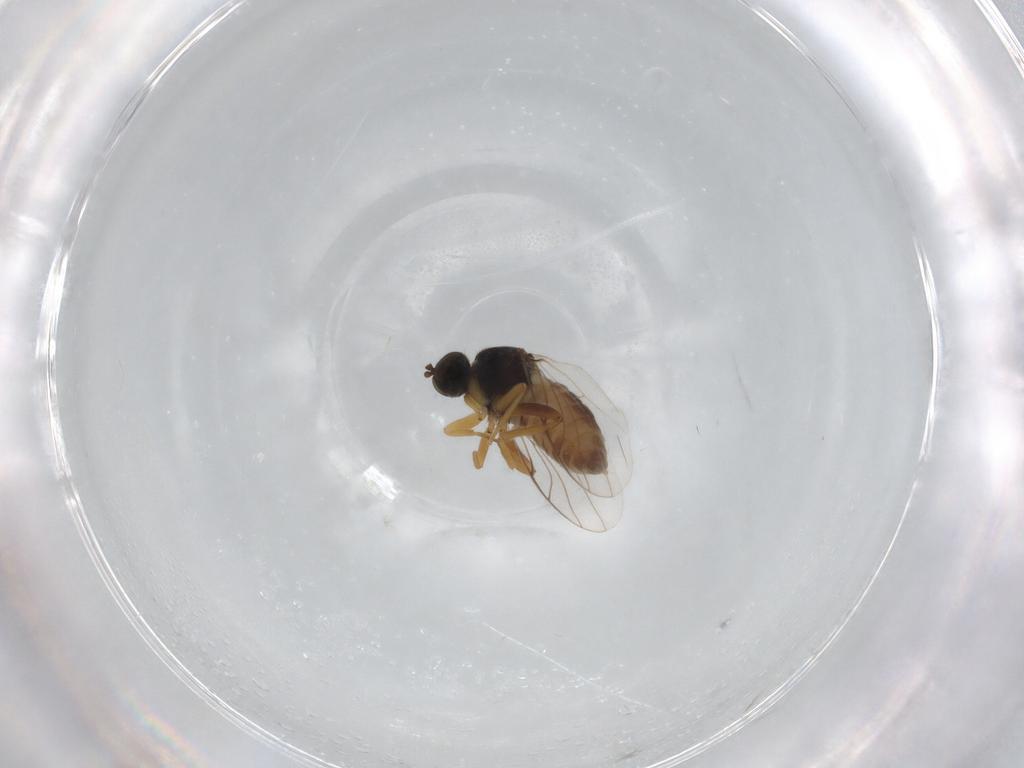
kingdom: Animalia
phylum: Arthropoda
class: Insecta
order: Diptera
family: Hybotidae
